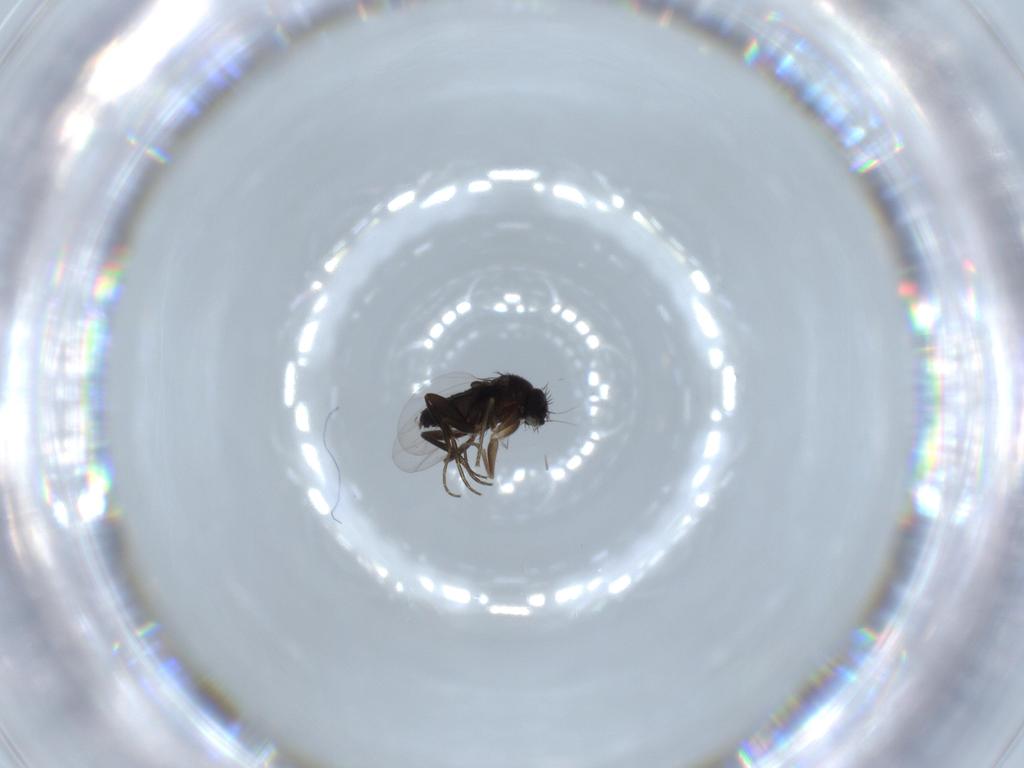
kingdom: Animalia
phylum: Arthropoda
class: Insecta
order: Diptera
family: Phoridae
